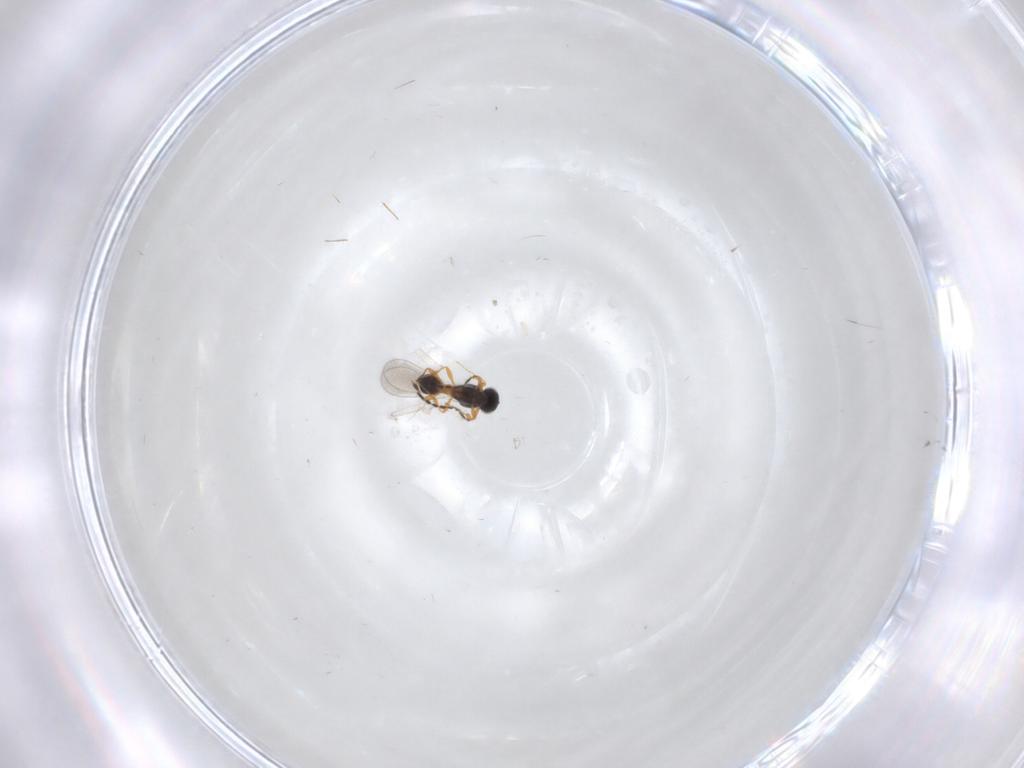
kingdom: Animalia
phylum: Arthropoda
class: Insecta
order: Hymenoptera
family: Platygastridae
